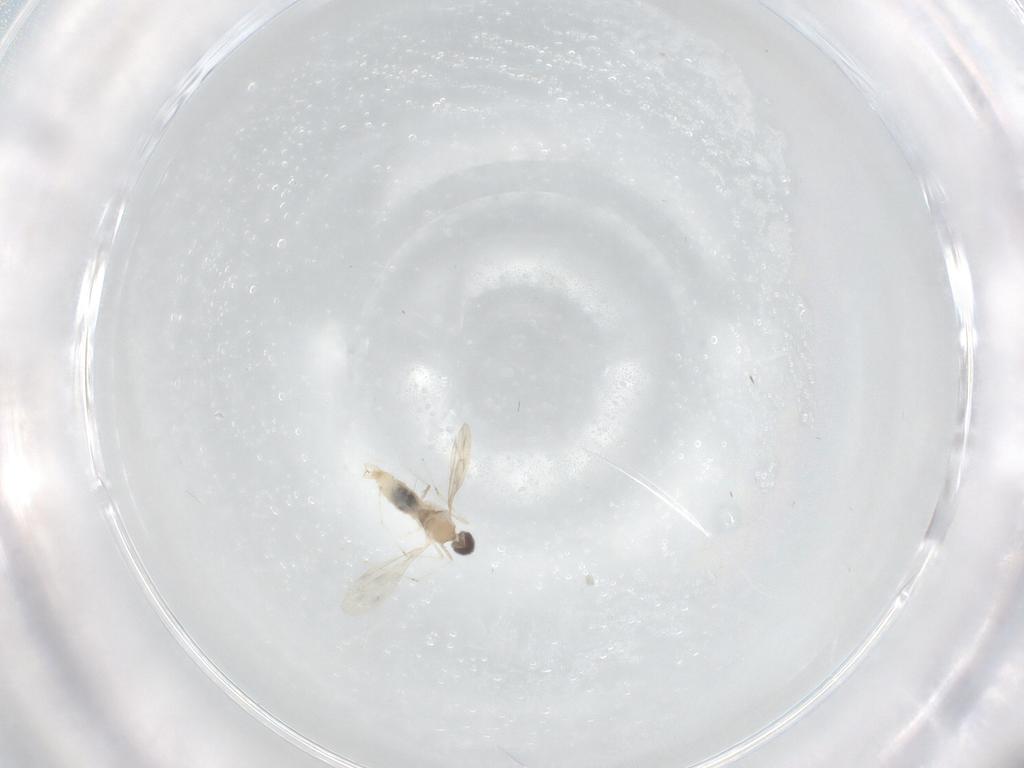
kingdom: Animalia
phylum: Arthropoda
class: Insecta
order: Diptera
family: Cecidomyiidae
